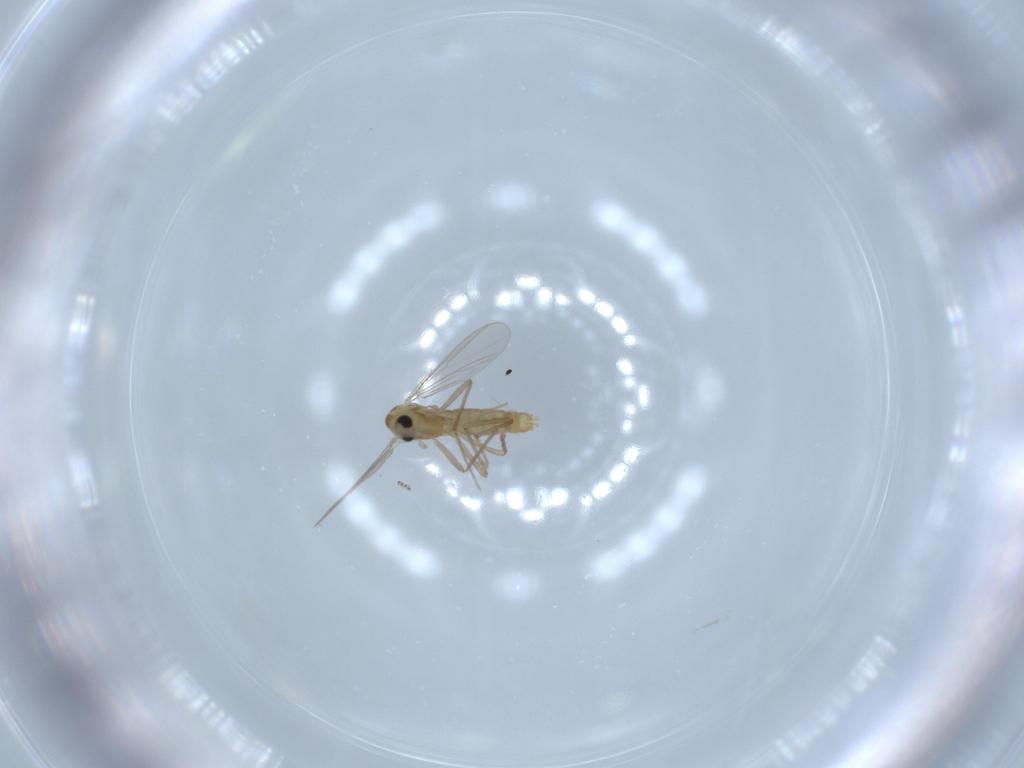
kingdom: Animalia
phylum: Arthropoda
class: Insecta
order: Diptera
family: Chironomidae
